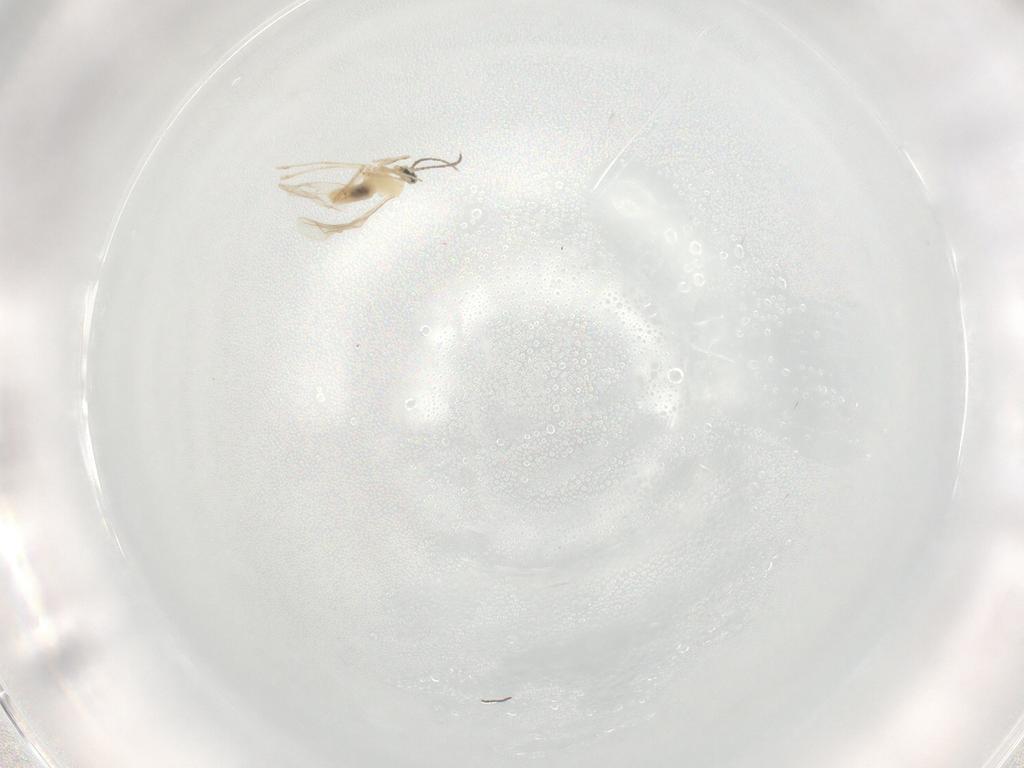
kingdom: Animalia
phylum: Arthropoda
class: Insecta
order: Diptera
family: Cecidomyiidae
